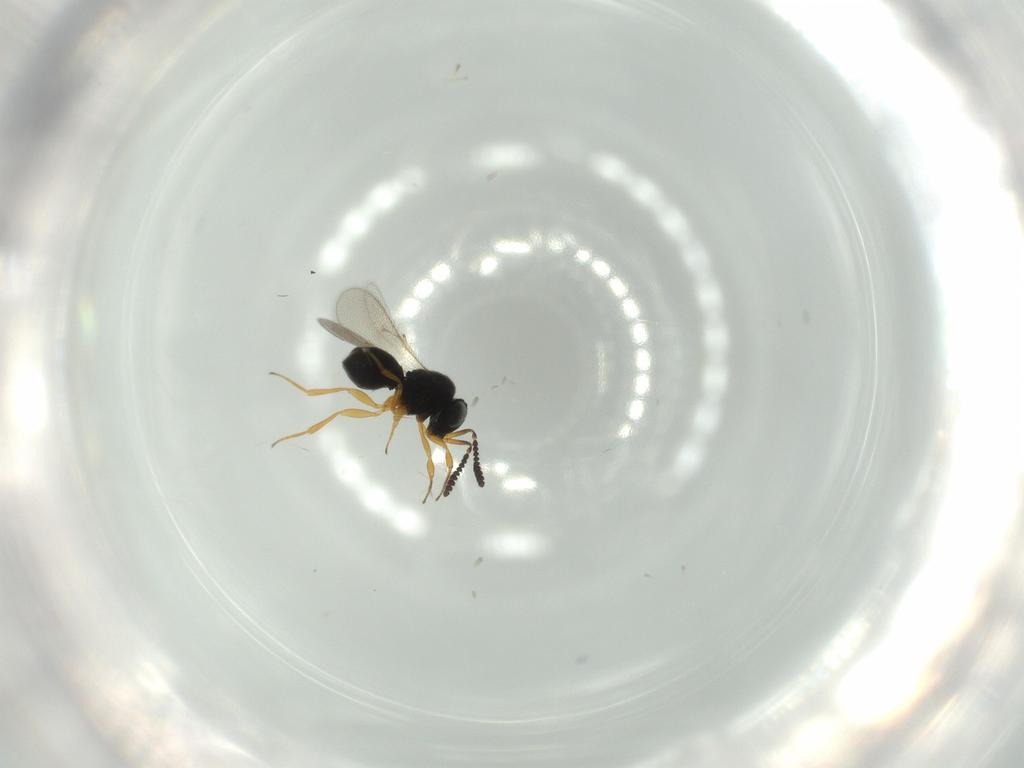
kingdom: Animalia
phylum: Arthropoda
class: Insecta
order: Hymenoptera
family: Scelionidae
